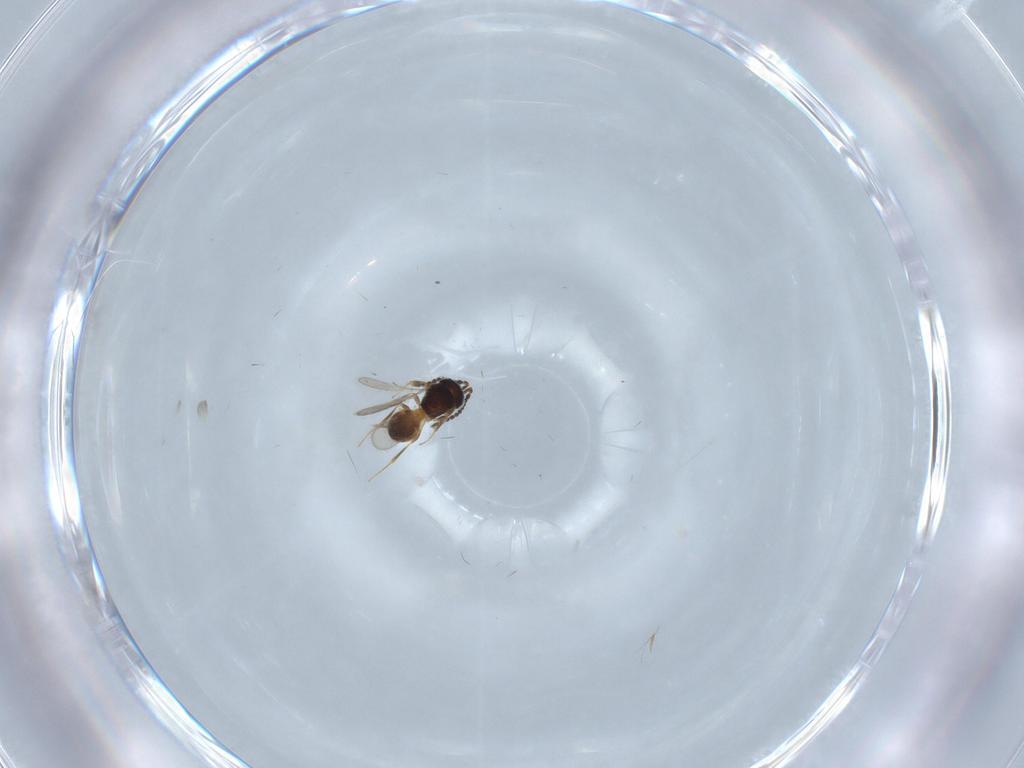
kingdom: Animalia
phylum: Arthropoda
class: Insecta
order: Hymenoptera
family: Scelionidae
